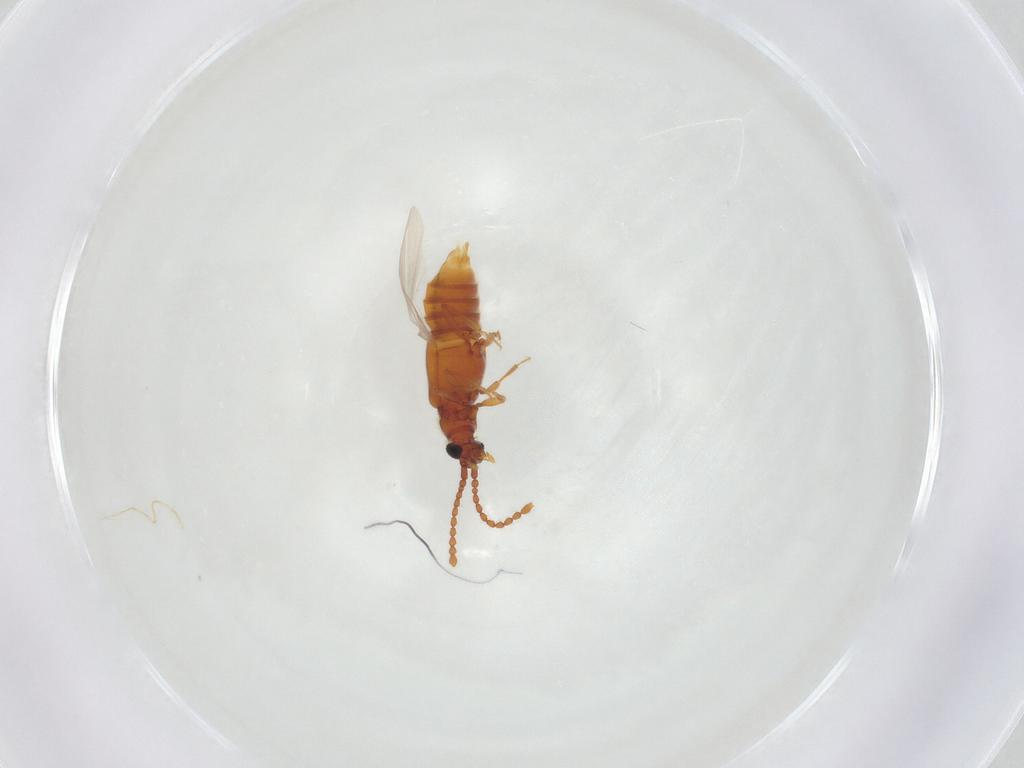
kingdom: Animalia
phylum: Arthropoda
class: Insecta
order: Coleoptera
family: Staphylinidae
